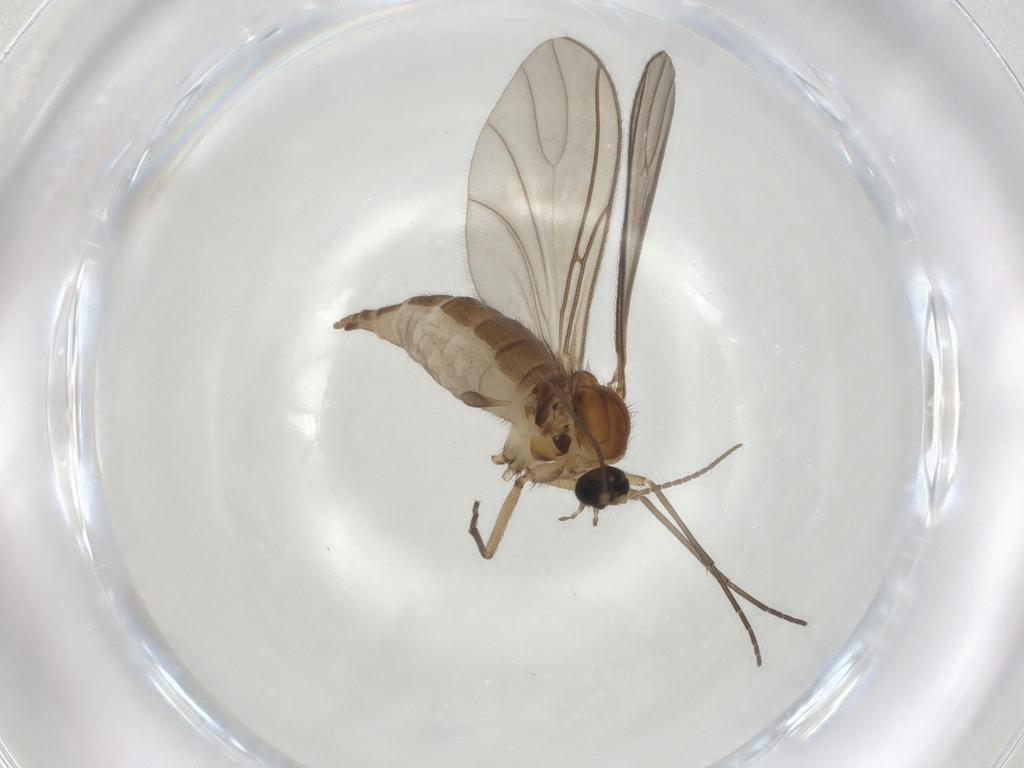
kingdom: Animalia
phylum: Arthropoda
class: Insecta
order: Diptera
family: Sciaridae
